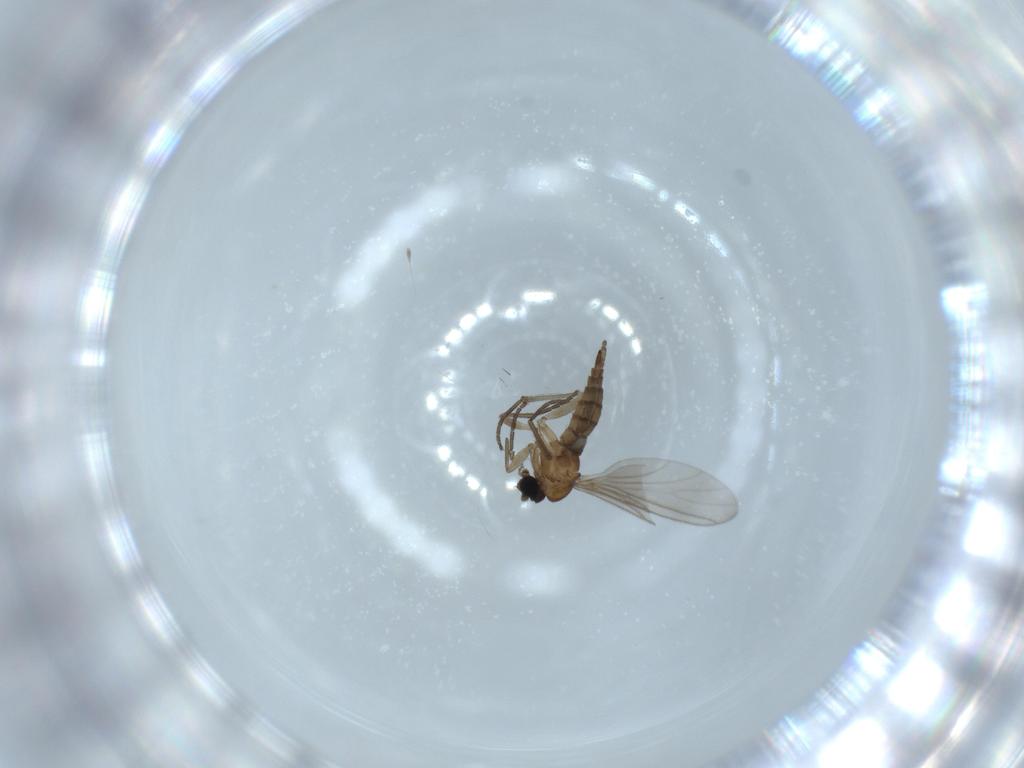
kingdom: Animalia
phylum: Arthropoda
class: Insecta
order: Diptera
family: Sciaridae
